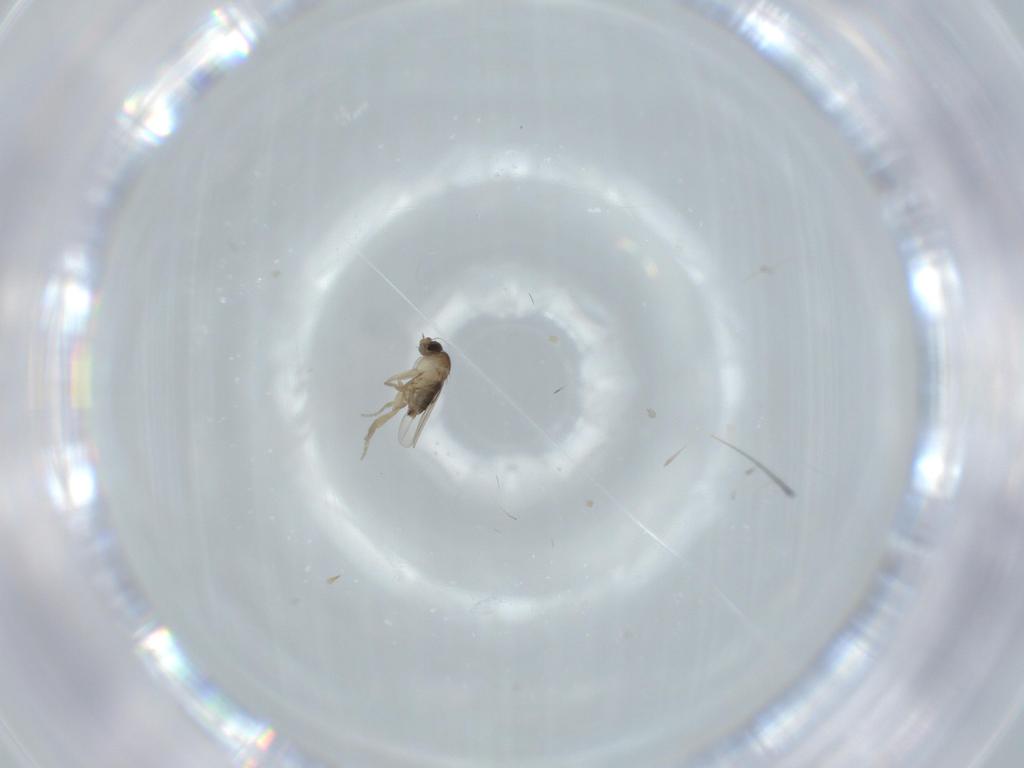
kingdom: Animalia
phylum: Arthropoda
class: Insecta
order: Diptera
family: Phoridae
